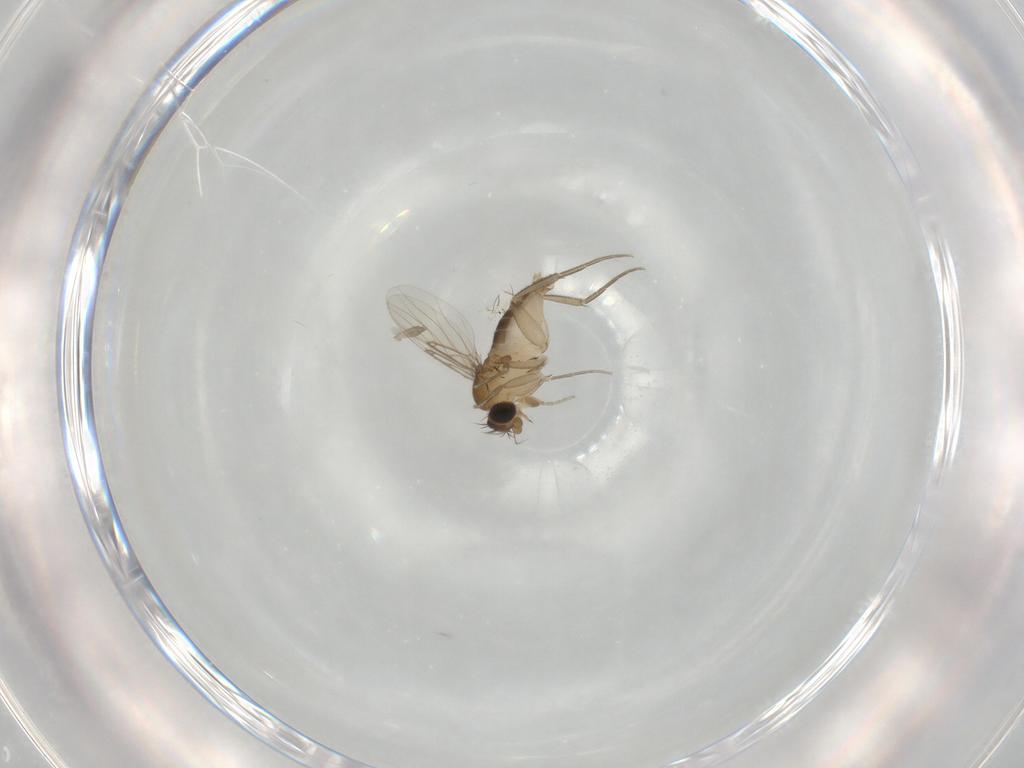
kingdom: Animalia
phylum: Arthropoda
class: Insecta
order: Diptera
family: Phoridae
